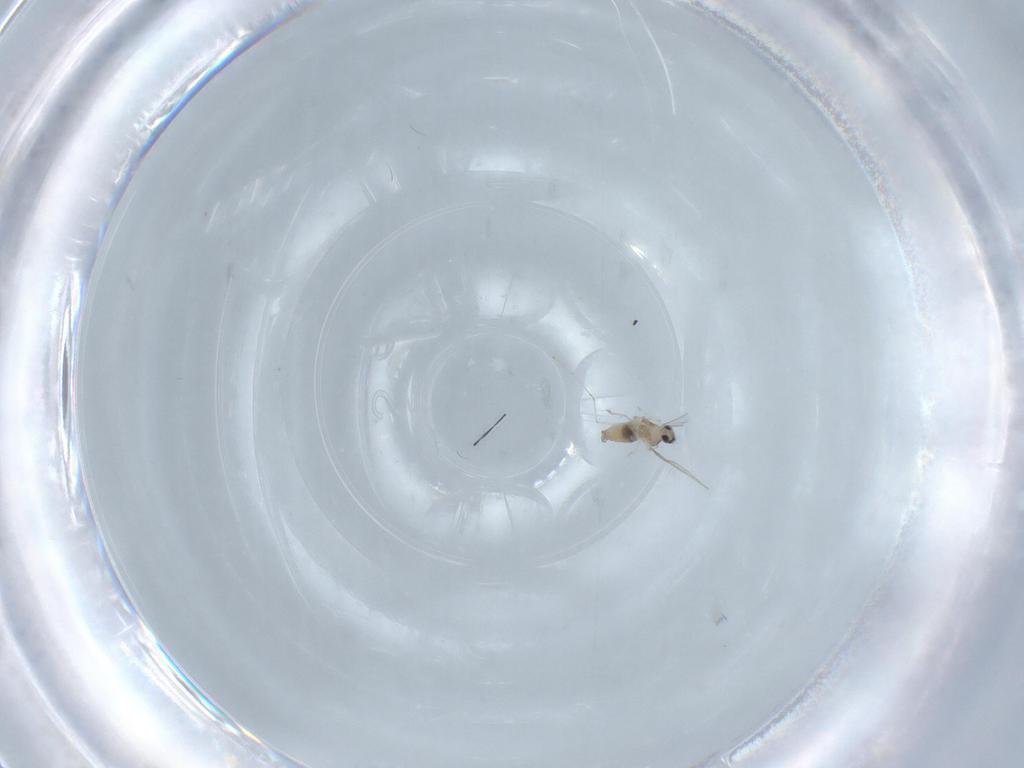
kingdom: Animalia
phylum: Arthropoda
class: Insecta
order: Diptera
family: Cecidomyiidae
